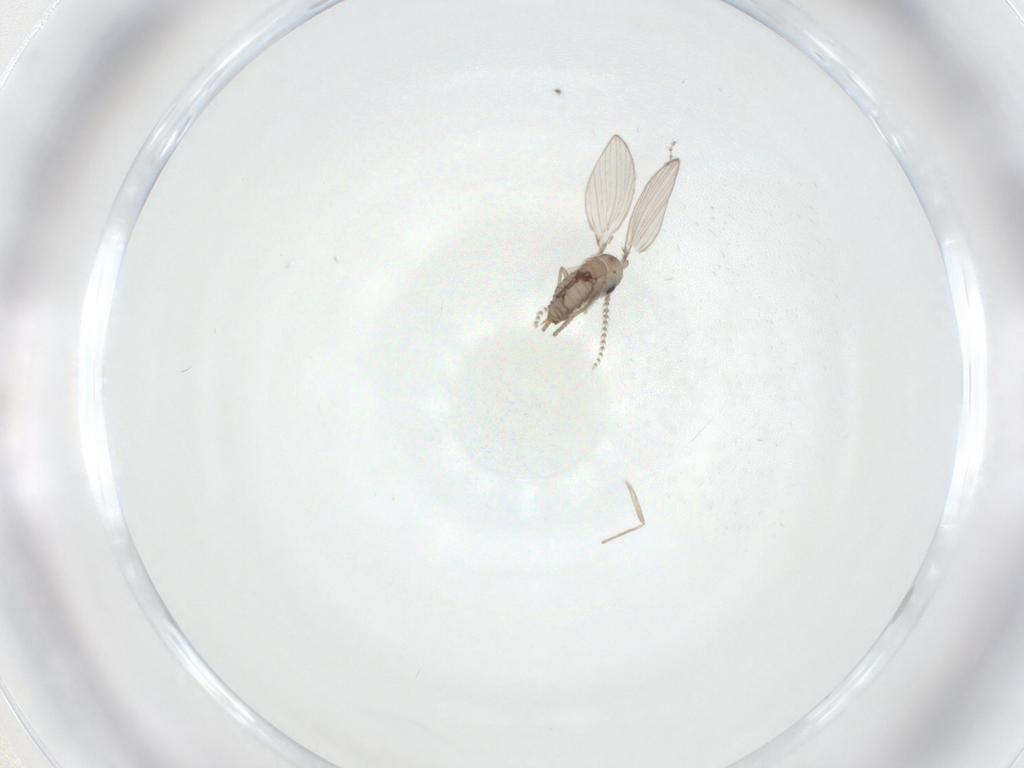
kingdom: Animalia
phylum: Arthropoda
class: Insecta
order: Diptera
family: Psychodidae
